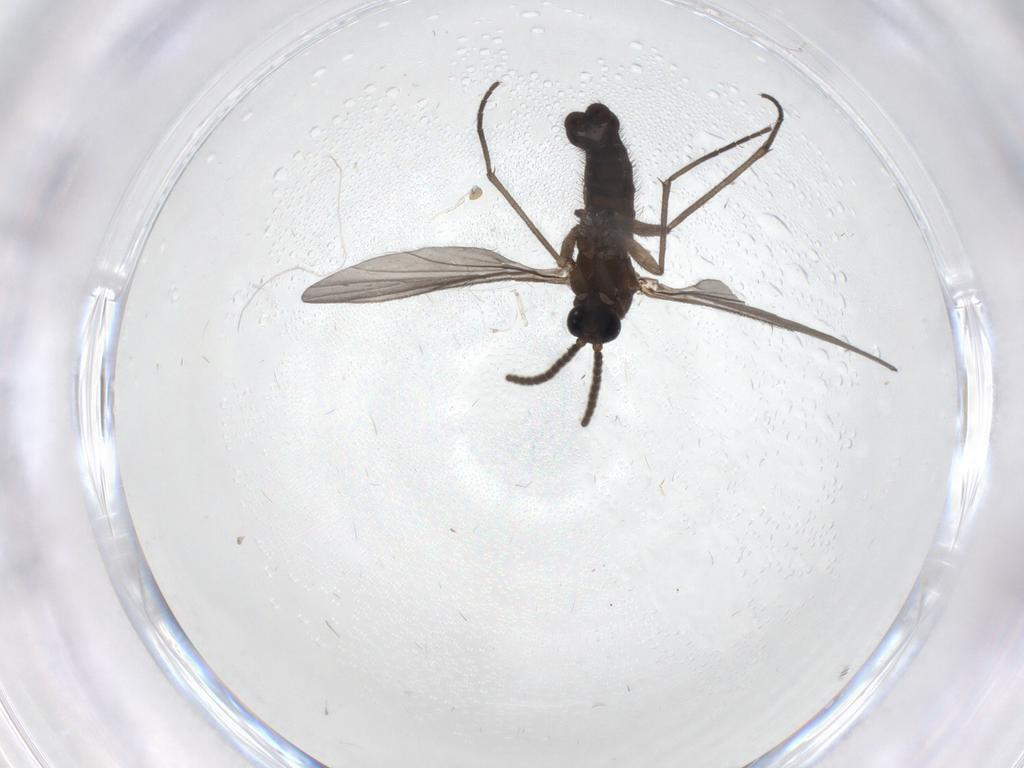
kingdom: Animalia
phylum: Arthropoda
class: Insecta
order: Diptera
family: Sciaridae
